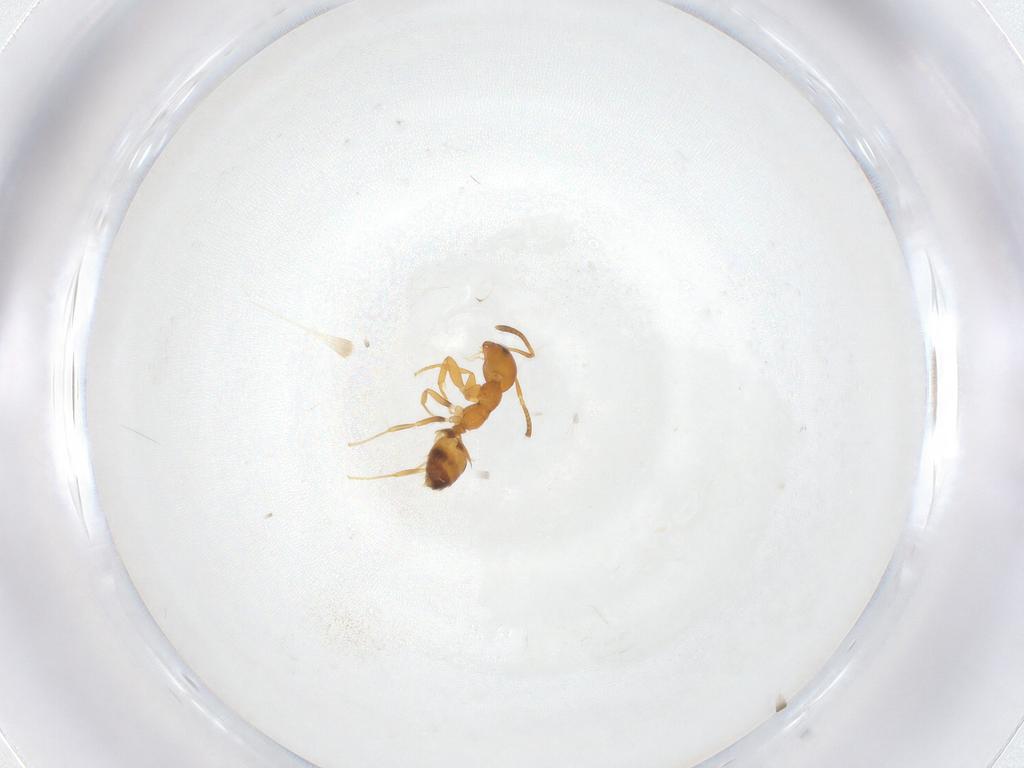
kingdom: Animalia
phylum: Arthropoda
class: Insecta
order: Hymenoptera
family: Formicidae
